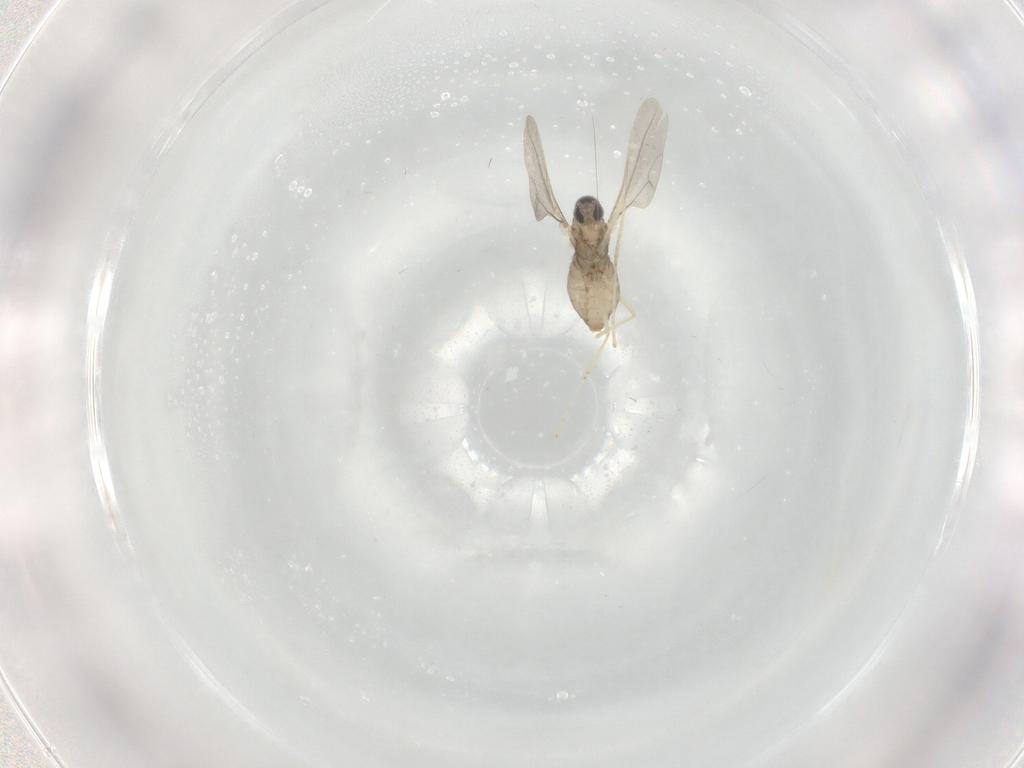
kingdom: Animalia
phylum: Arthropoda
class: Insecta
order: Diptera
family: Cecidomyiidae
